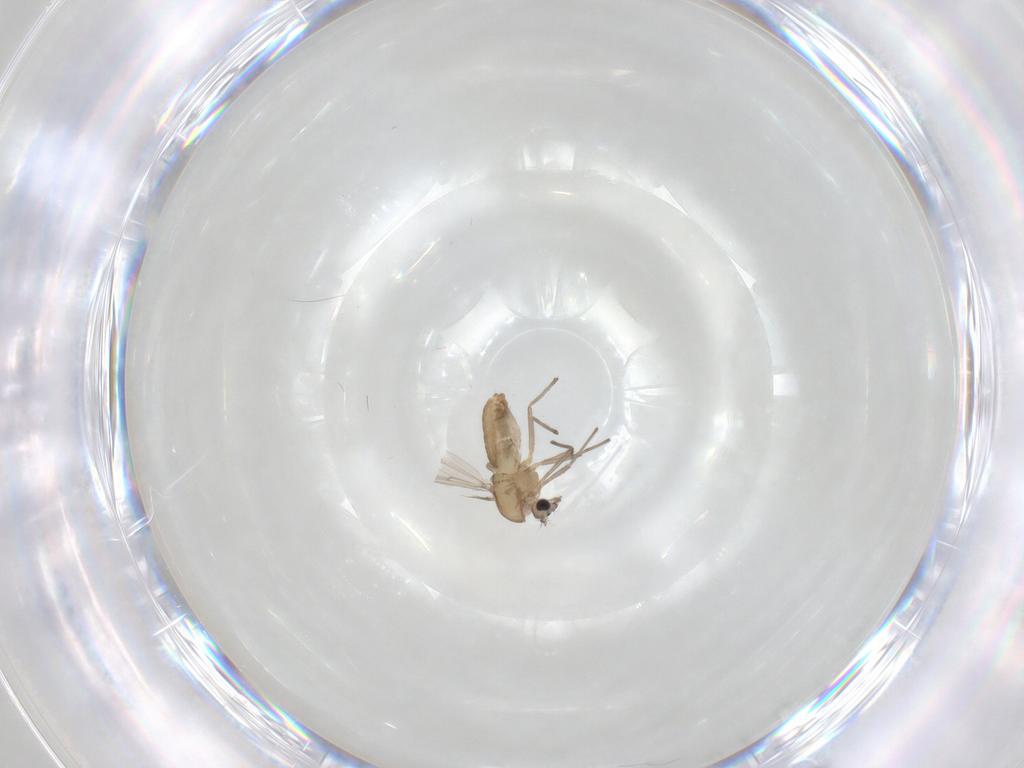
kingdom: Animalia
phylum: Arthropoda
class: Insecta
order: Diptera
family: Chironomidae
